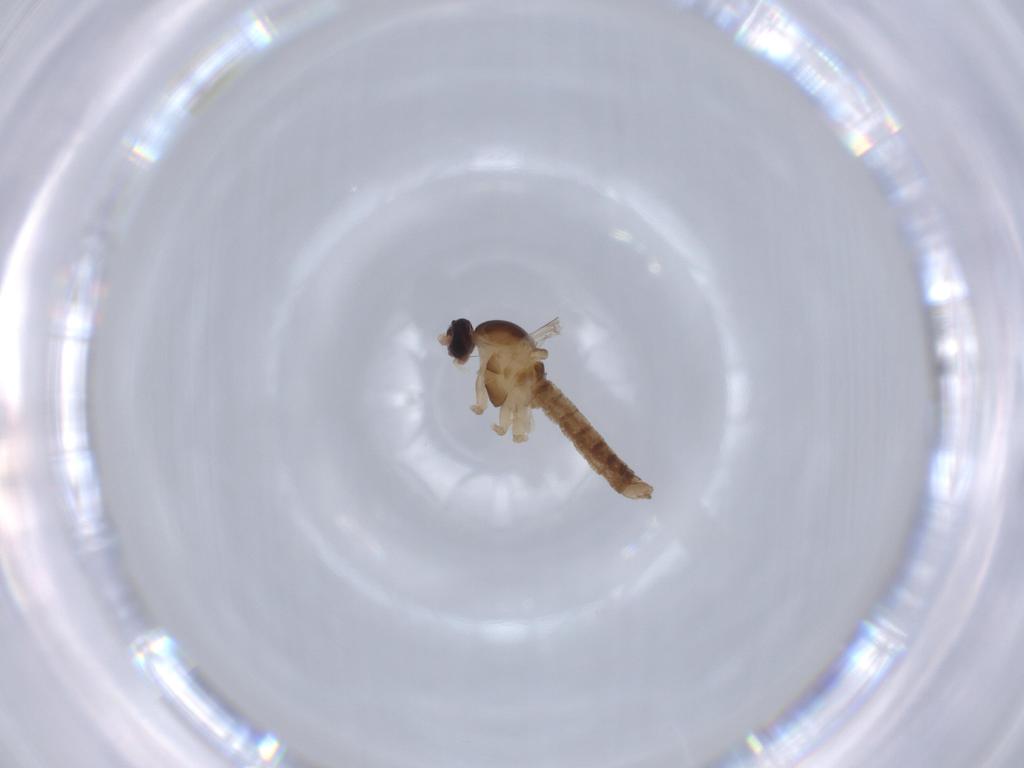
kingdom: Animalia
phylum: Arthropoda
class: Insecta
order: Diptera
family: Cecidomyiidae
